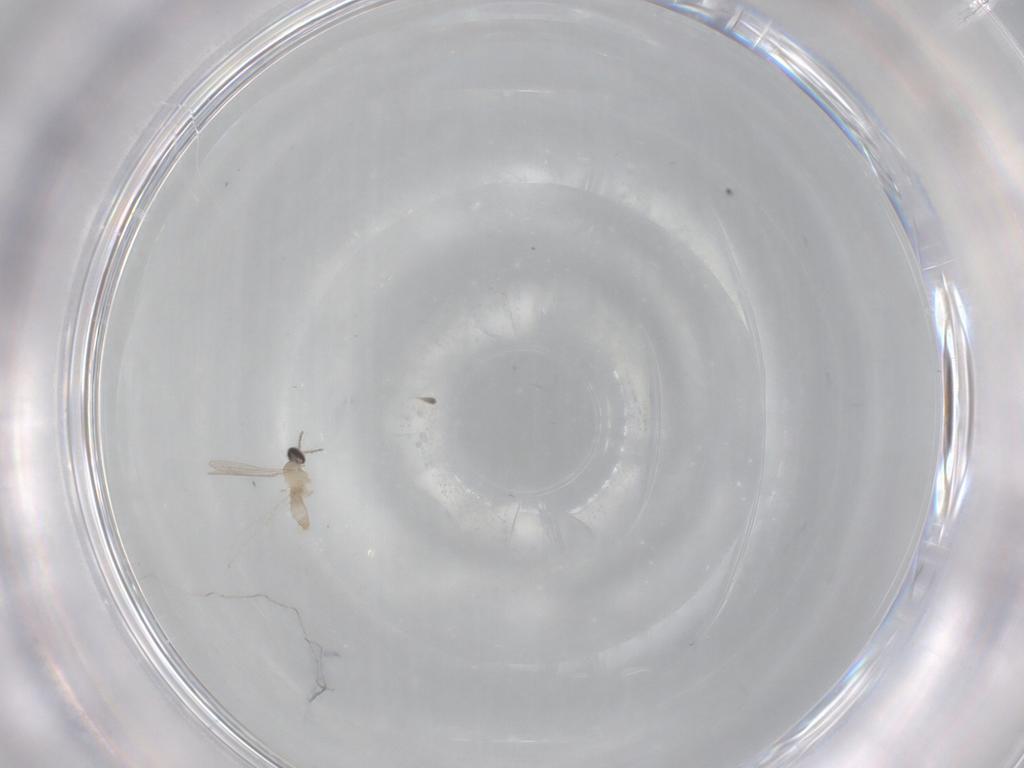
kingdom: Animalia
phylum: Arthropoda
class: Insecta
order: Diptera
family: Cecidomyiidae
